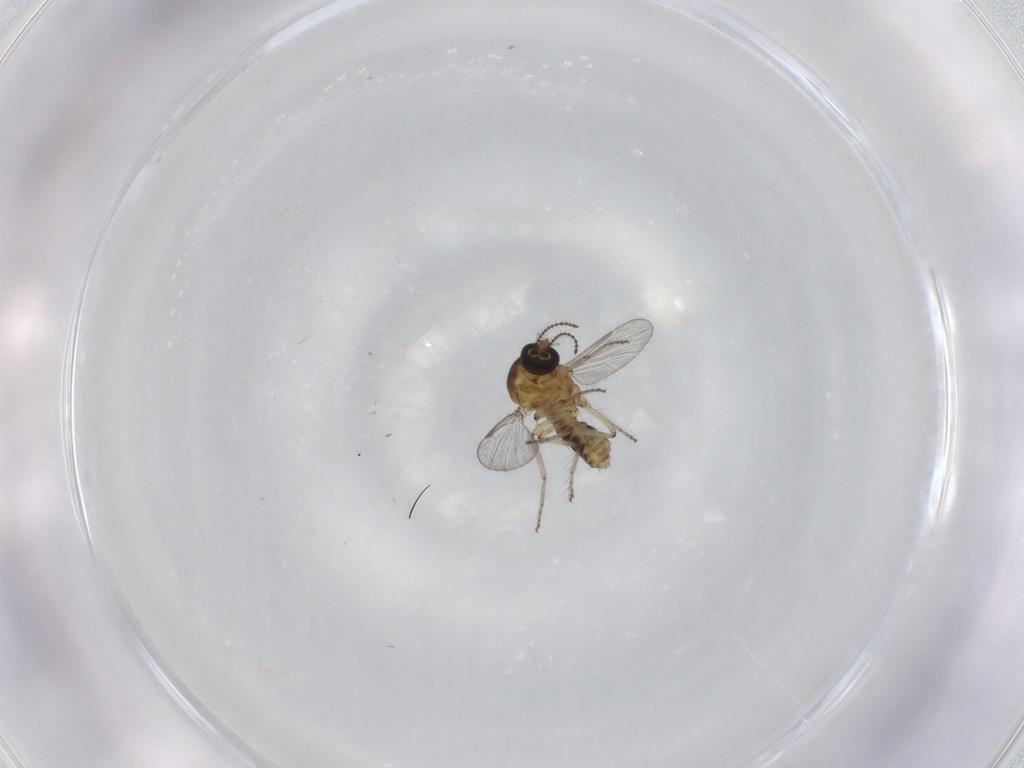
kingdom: Animalia
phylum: Arthropoda
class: Insecta
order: Diptera
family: Ceratopogonidae
